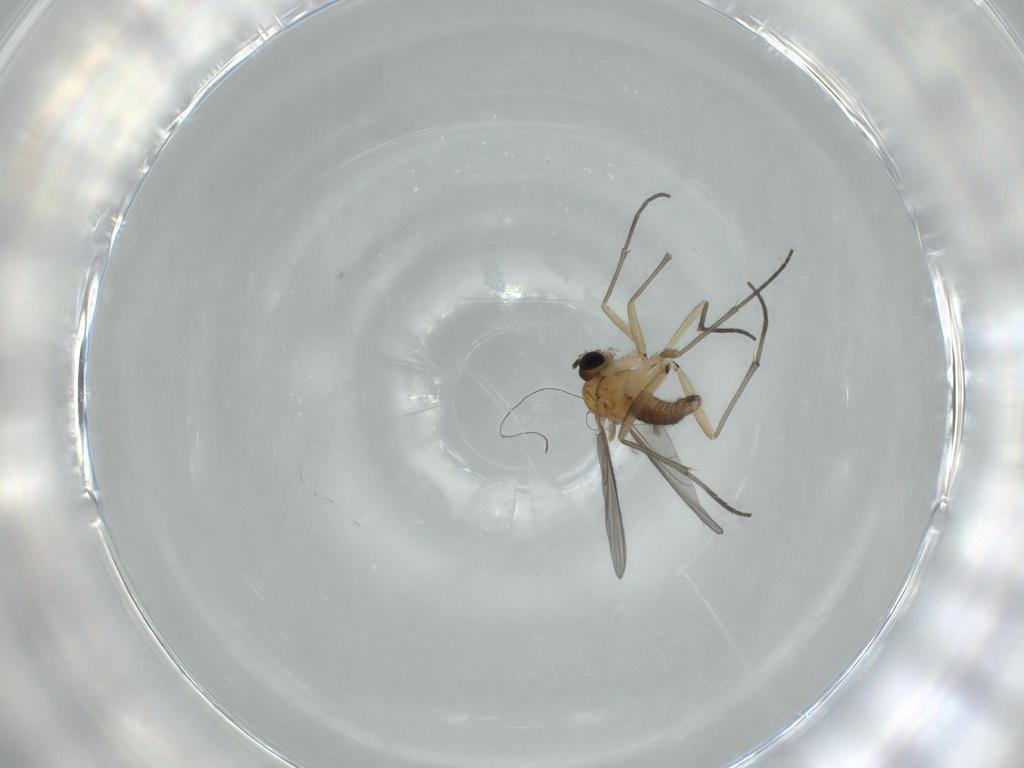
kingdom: Animalia
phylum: Arthropoda
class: Insecta
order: Diptera
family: Sciaridae
